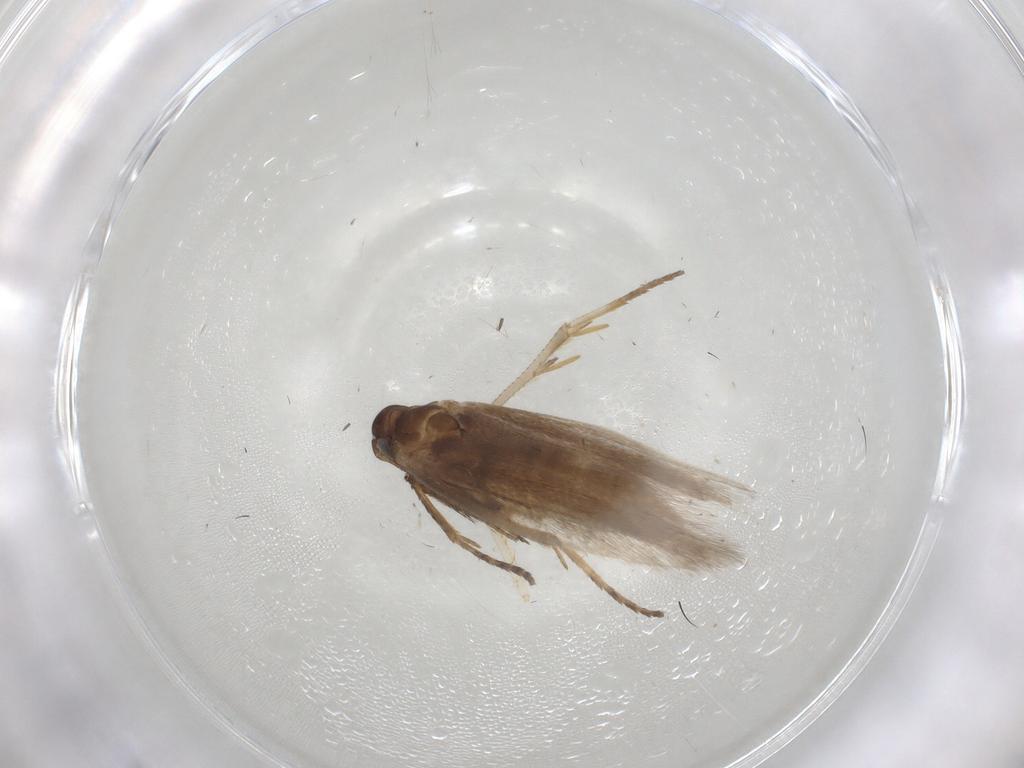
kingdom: Animalia
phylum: Arthropoda
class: Insecta
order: Lepidoptera
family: Gelechiidae
